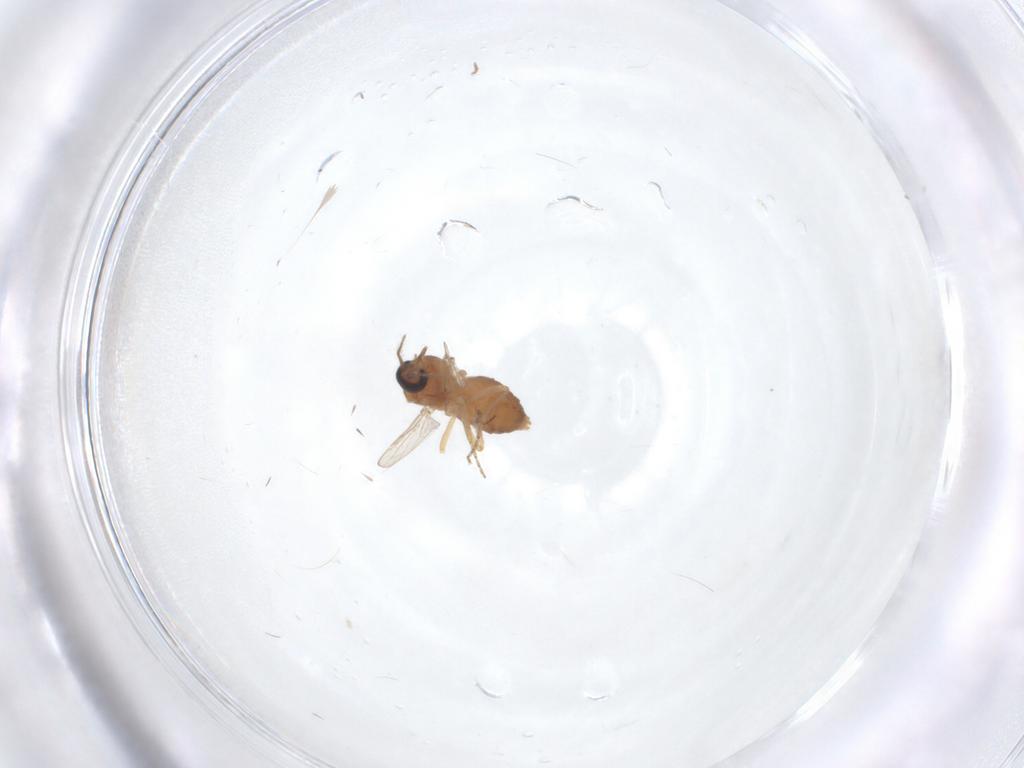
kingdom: Animalia
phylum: Arthropoda
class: Insecta
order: Diptera
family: Ceratopogonidae
